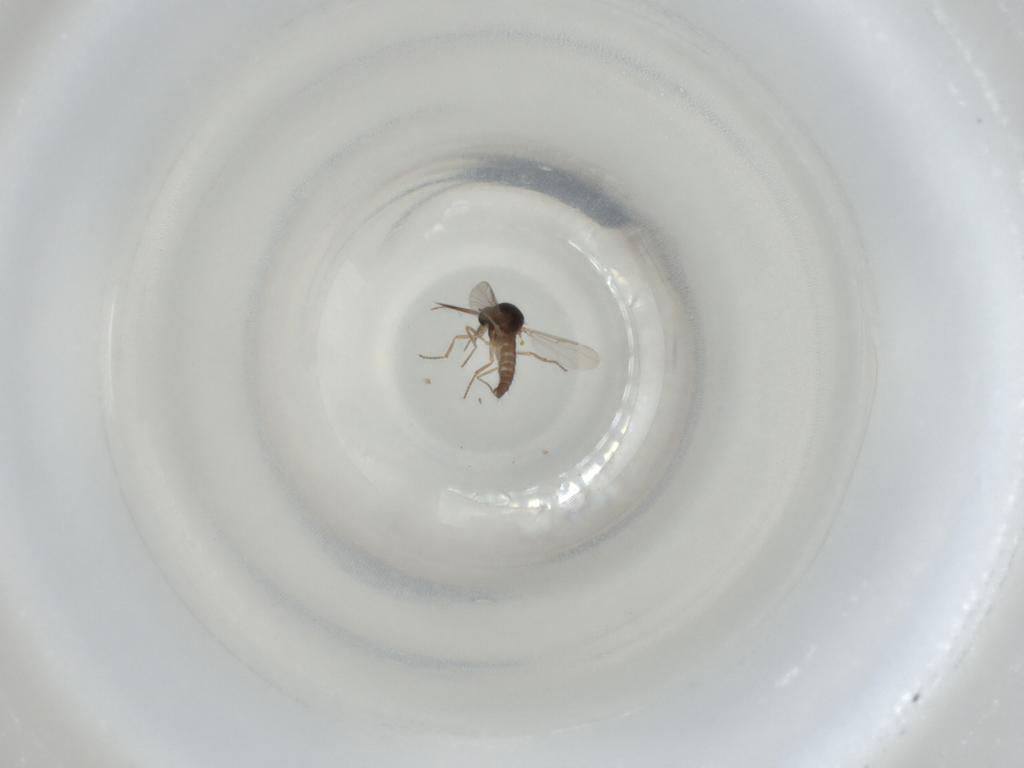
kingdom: Animalia
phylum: Arthropoda
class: Insecta
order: Diptera
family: Ceratopogonidae
